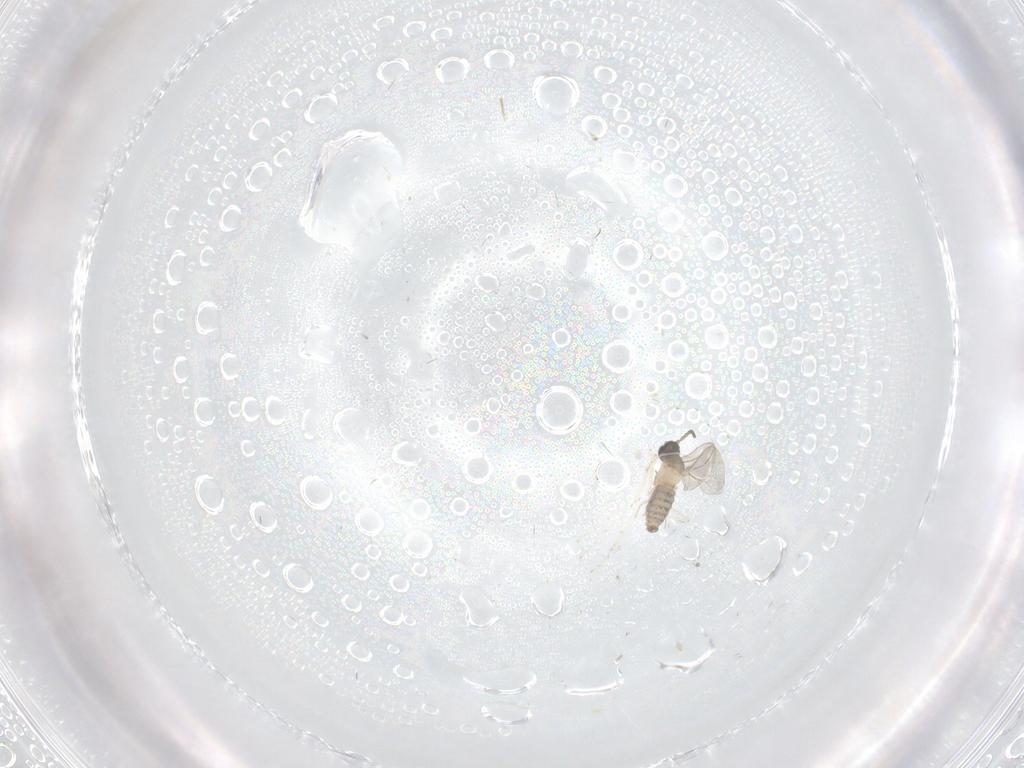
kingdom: Animalia
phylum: Arthropoda
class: Insecta
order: Diptera
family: Cecidomyiidae
